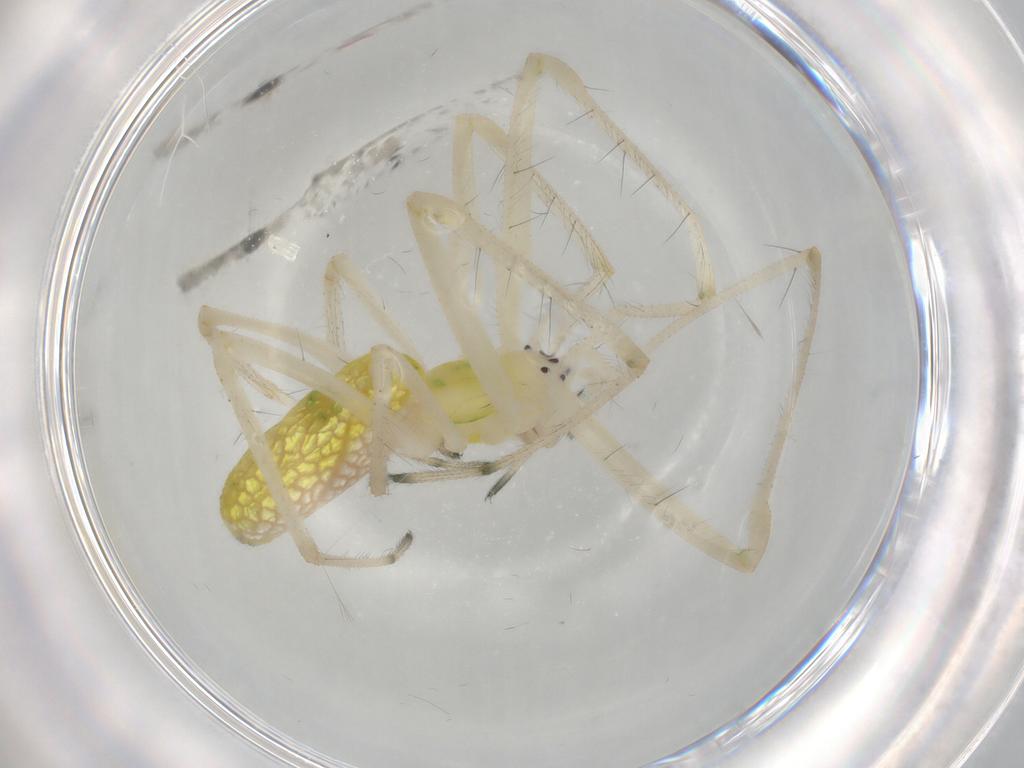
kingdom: Animalia
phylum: Arthropoda
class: Arachnida
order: Araneae
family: Tetragnathidae
